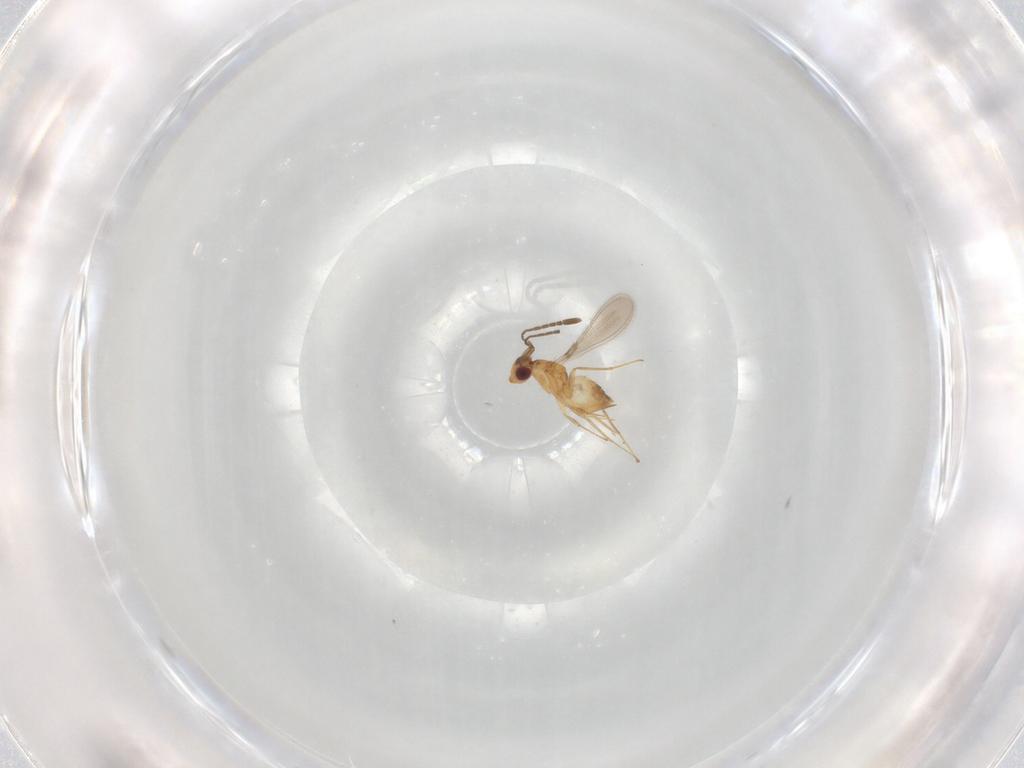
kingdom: Animalia
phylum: Arthropoda
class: Insecta
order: Hymenoptera
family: Mymaridae
